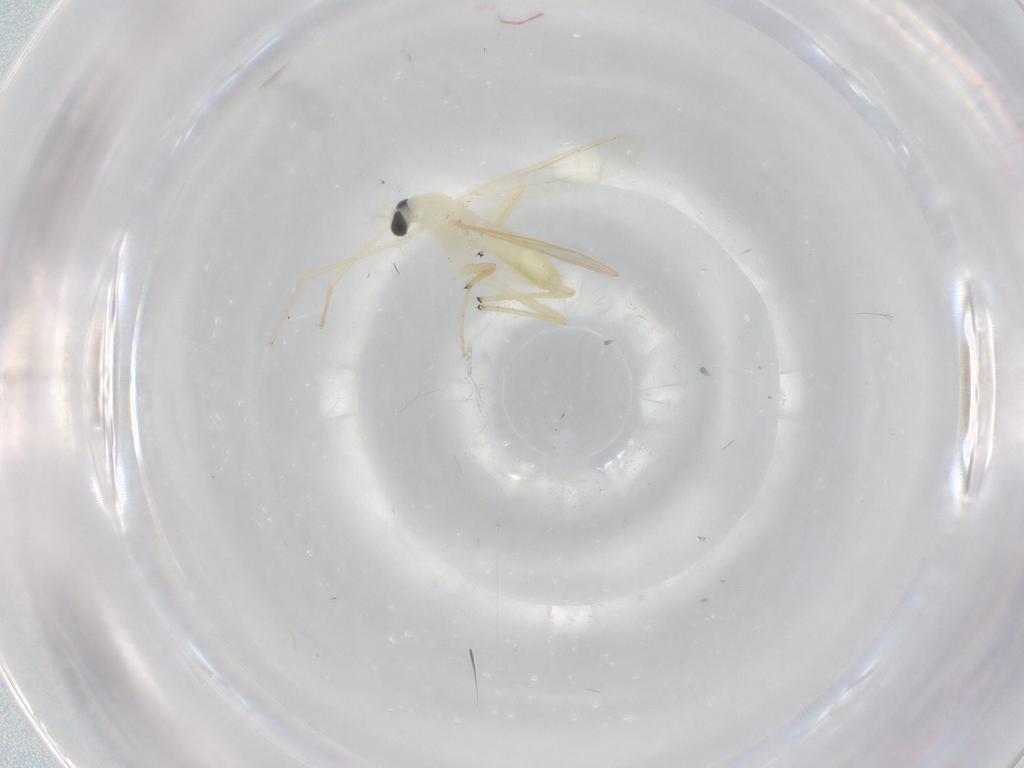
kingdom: Animalia
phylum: Arthropoda
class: Insecta
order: Diptera
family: Chironomidae
